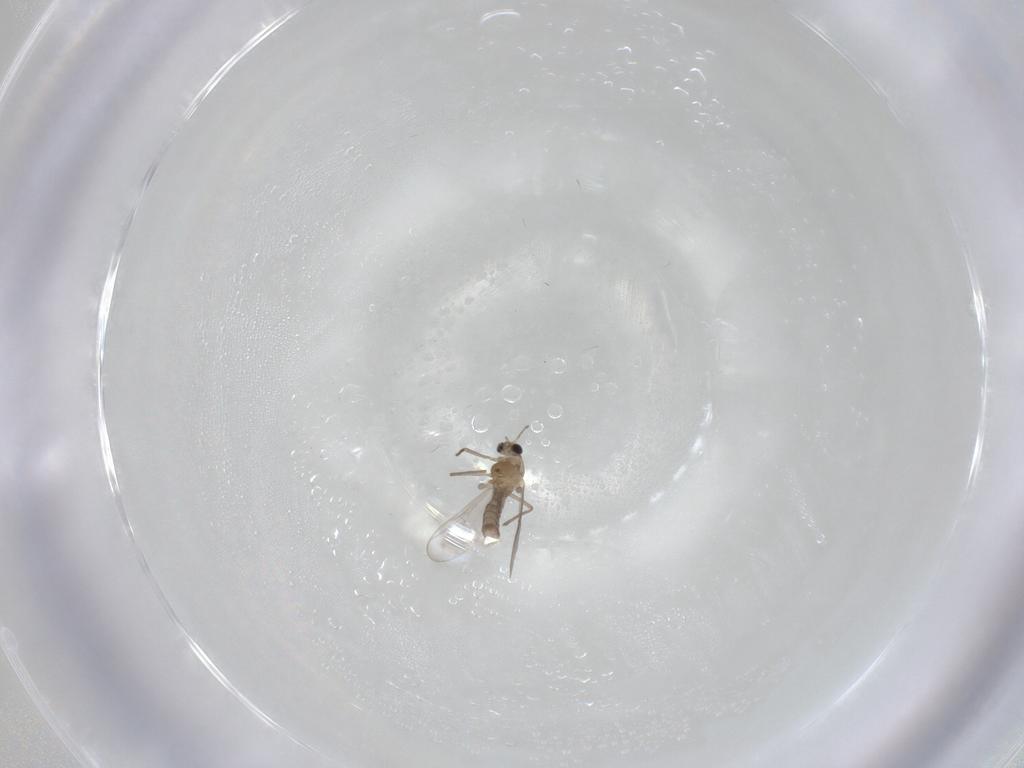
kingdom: Animalia
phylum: Arthropoda
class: Insecta
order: Diptera
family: Chironomidae
